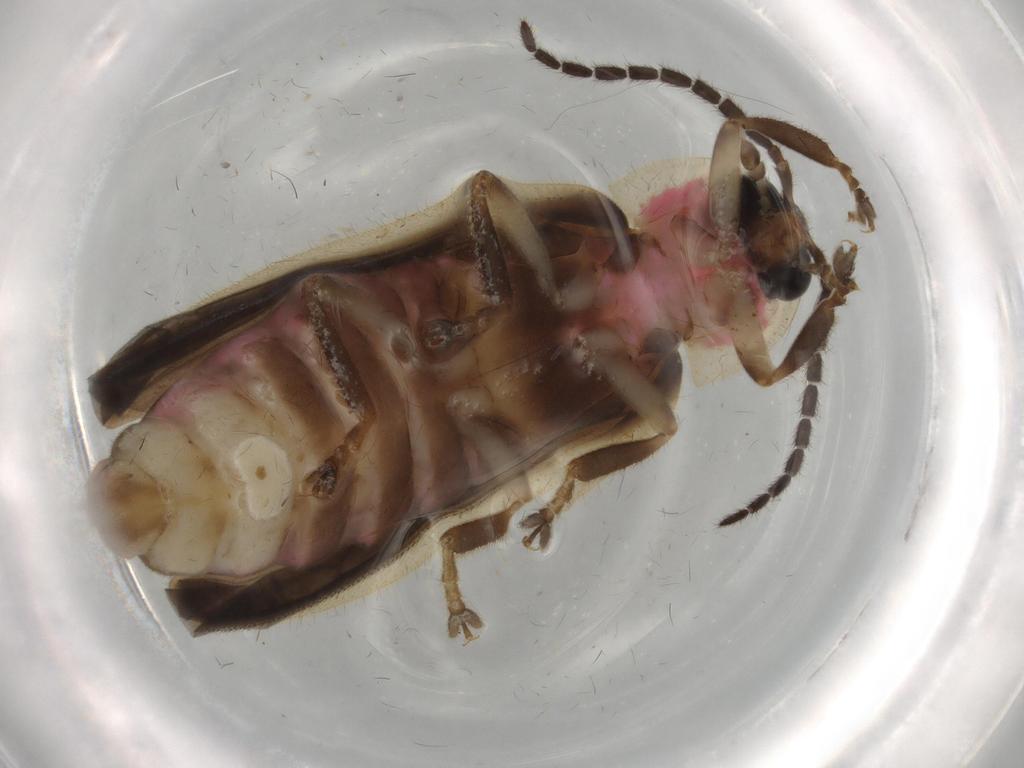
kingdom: Animalia
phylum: Arthropoda
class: Insecta
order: Coleoptera
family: Lampyridae
